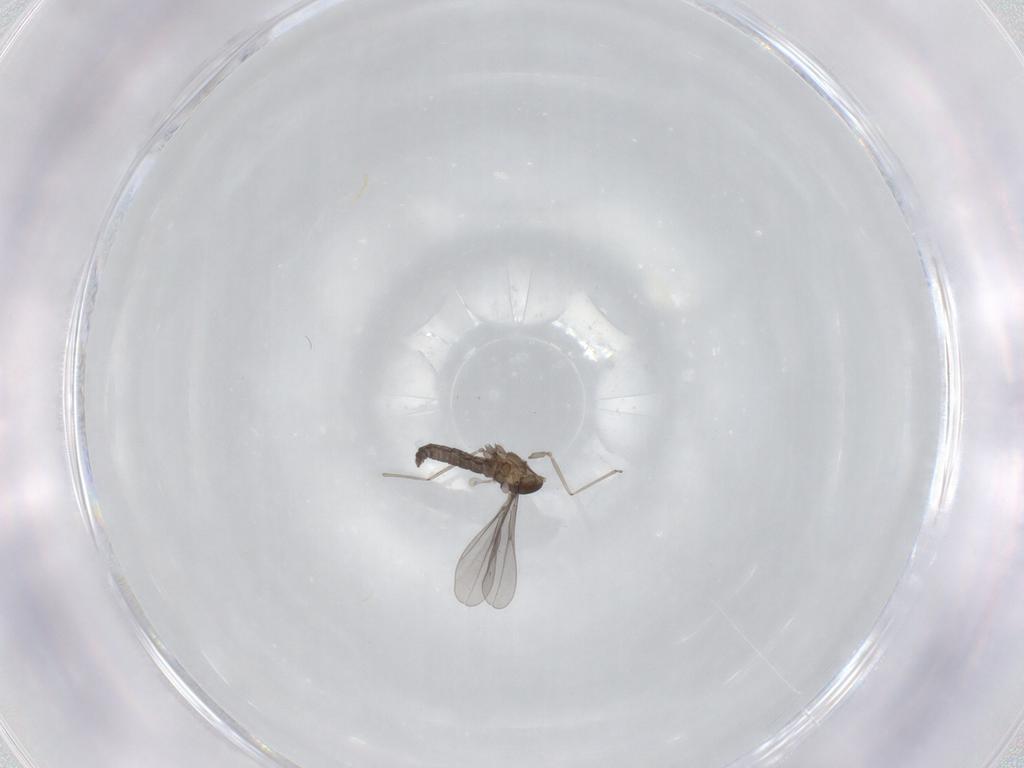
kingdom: Animalia
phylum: Arthropoda
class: Insecta
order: Diptera
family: Cecidomyiidae
